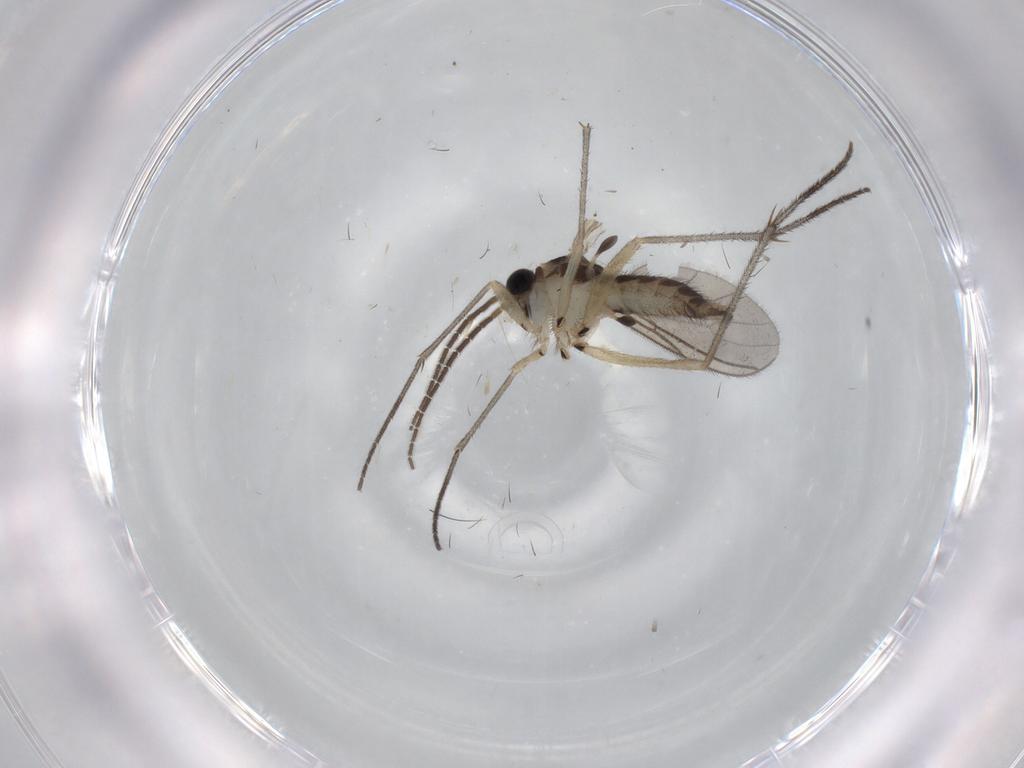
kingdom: Animalia
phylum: Arthropoda
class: Insecta
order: Diptera
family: Sciaridae
